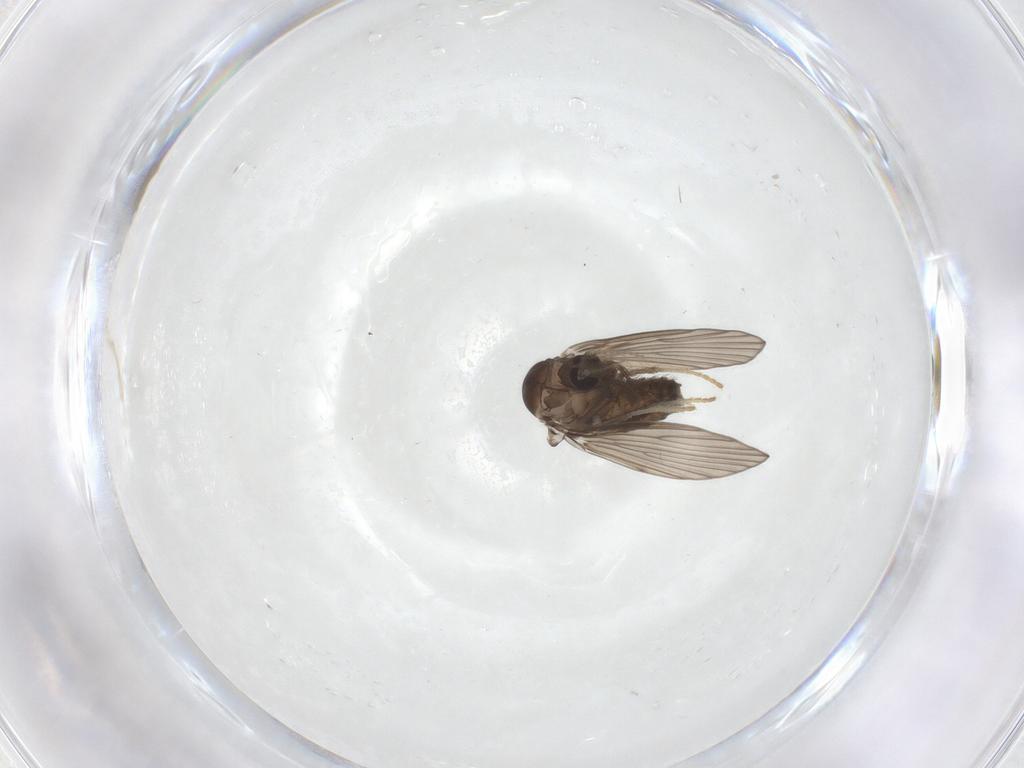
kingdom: Animalia
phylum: Arthropoda
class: Insecta
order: Diptera
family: Psychodidae
